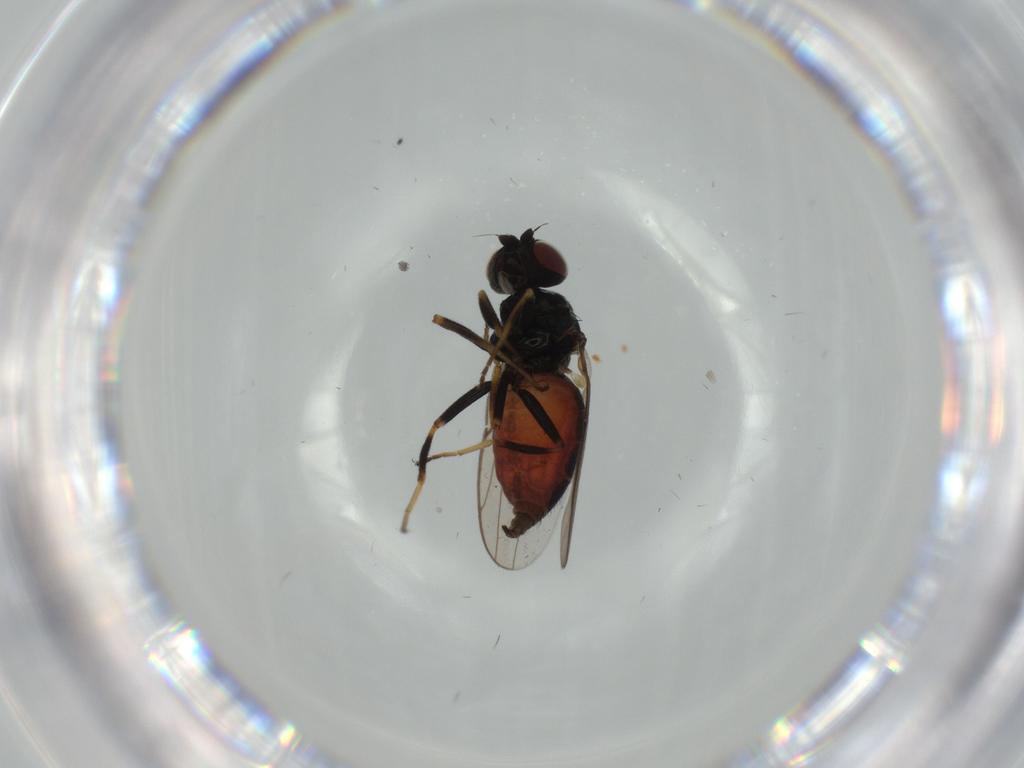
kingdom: Animalia
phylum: Arthropoda
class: Insecta
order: Diptera
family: Chloropidae
